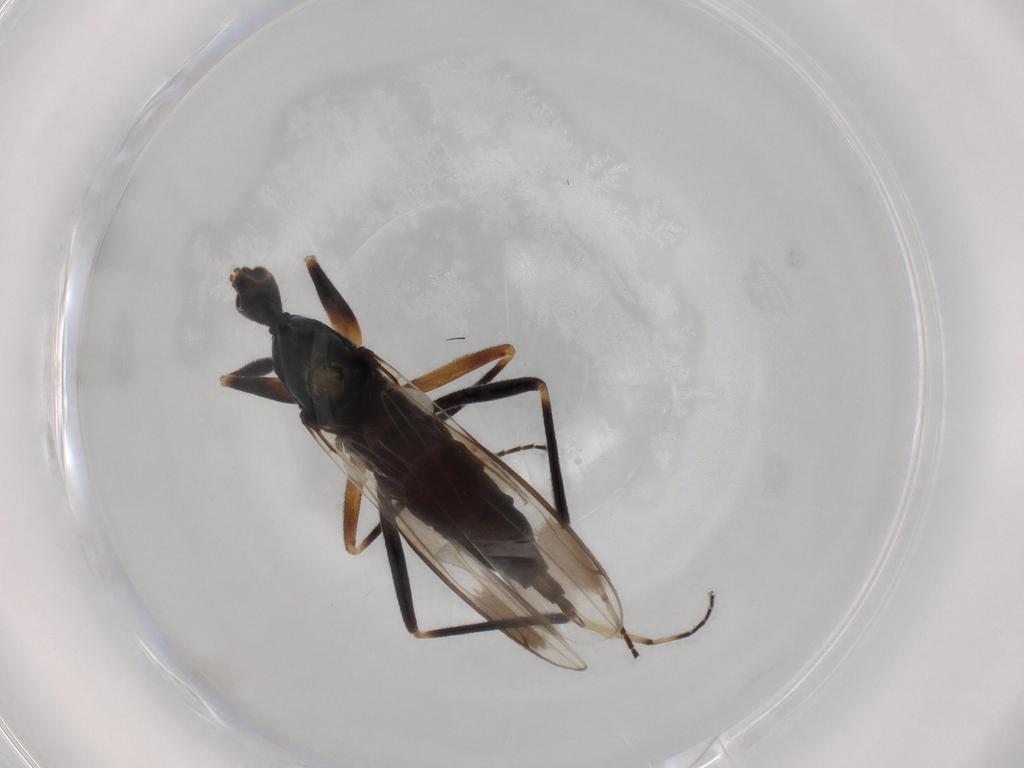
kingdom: Animalia
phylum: Arthropoda
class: Insecta
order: Diptera
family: Hybotidae
